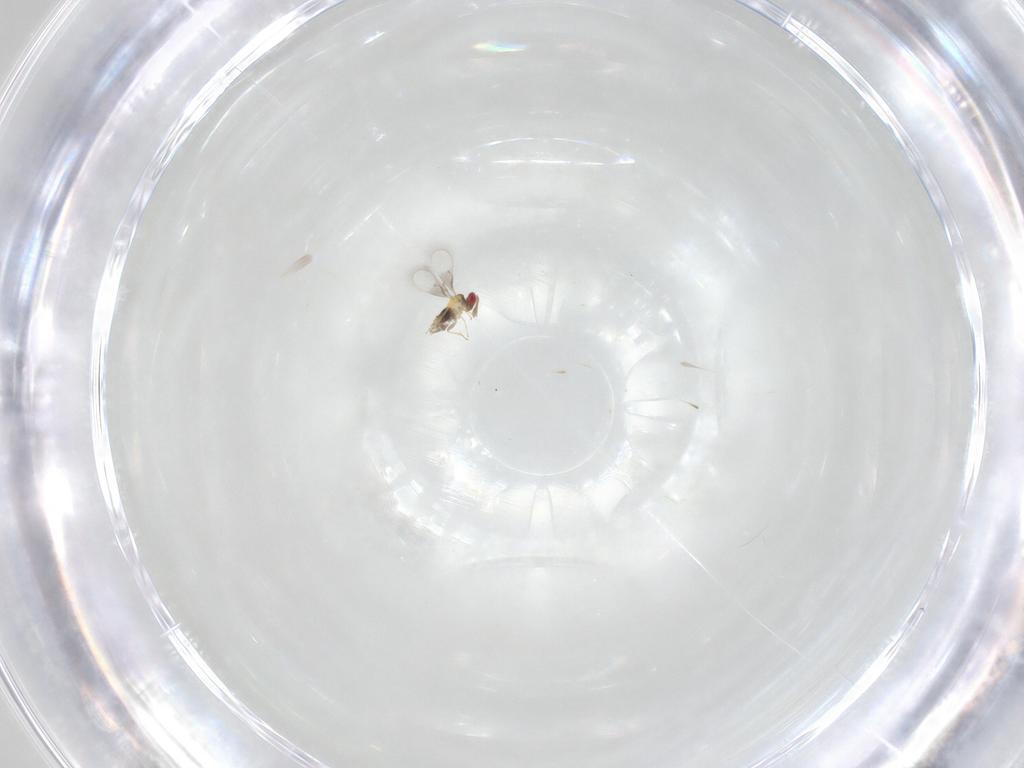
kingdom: Animalia
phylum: Arthropoda
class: Insecta
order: Hymenoptera
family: Trichogrammatidae
